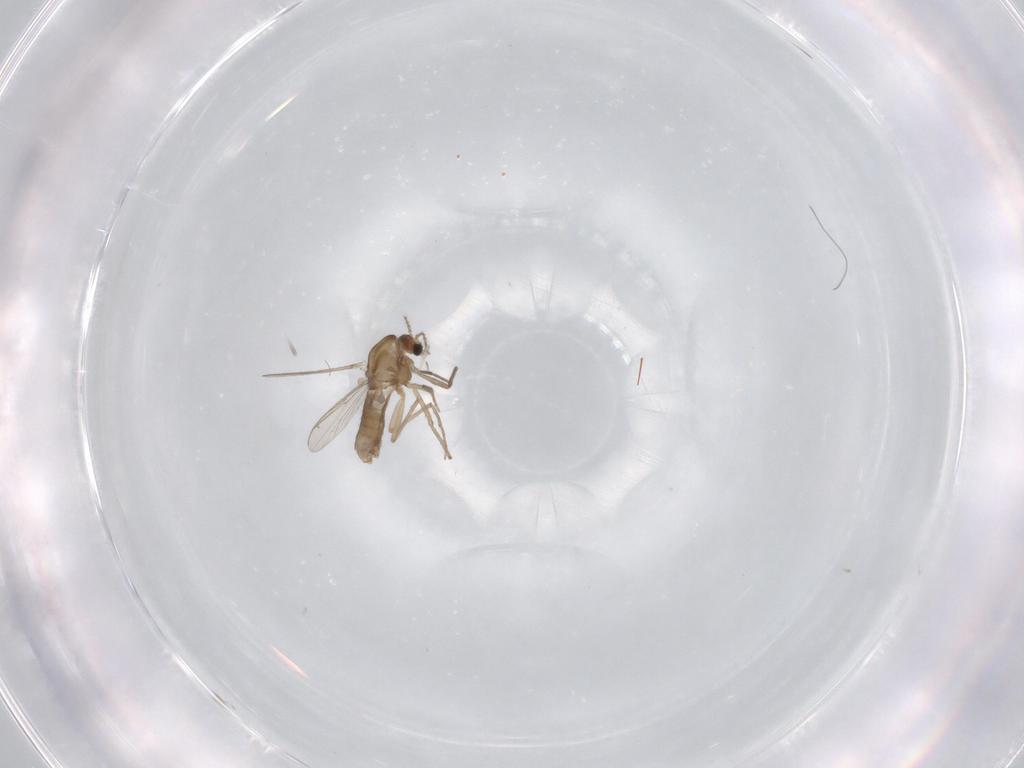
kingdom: Animalia
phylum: Arthropoda
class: Insecta
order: Diptera
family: Chironomidae
